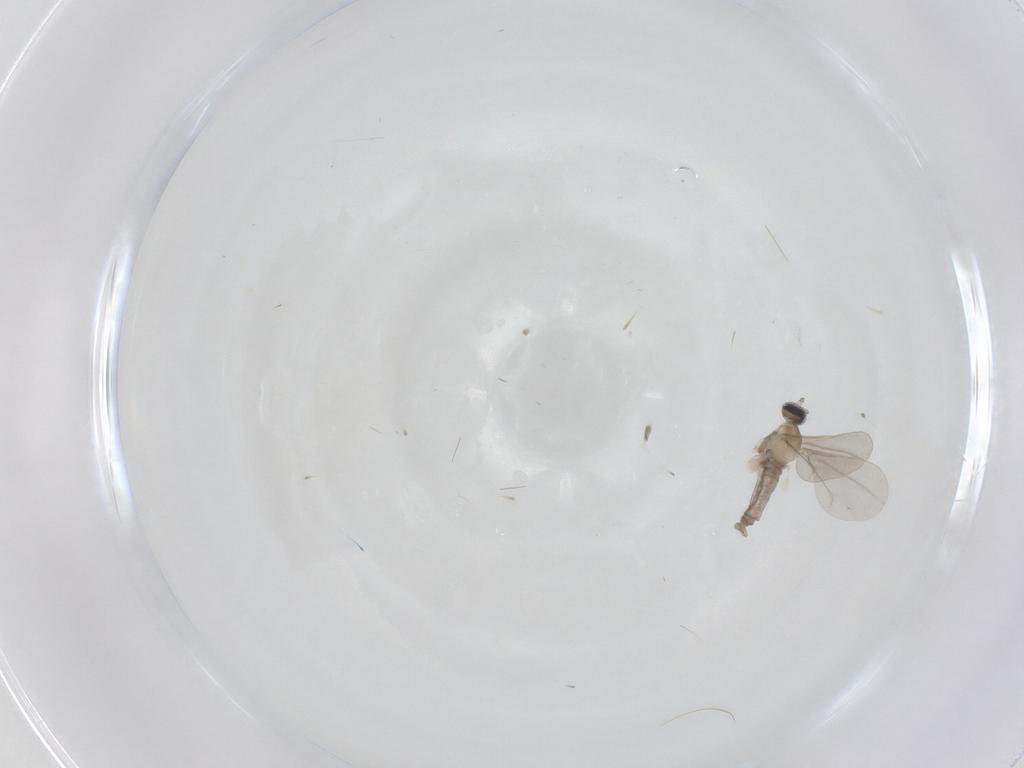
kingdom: Animalia
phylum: Arthropoda
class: Insecta
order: Diptera
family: Cecidomyiidae
